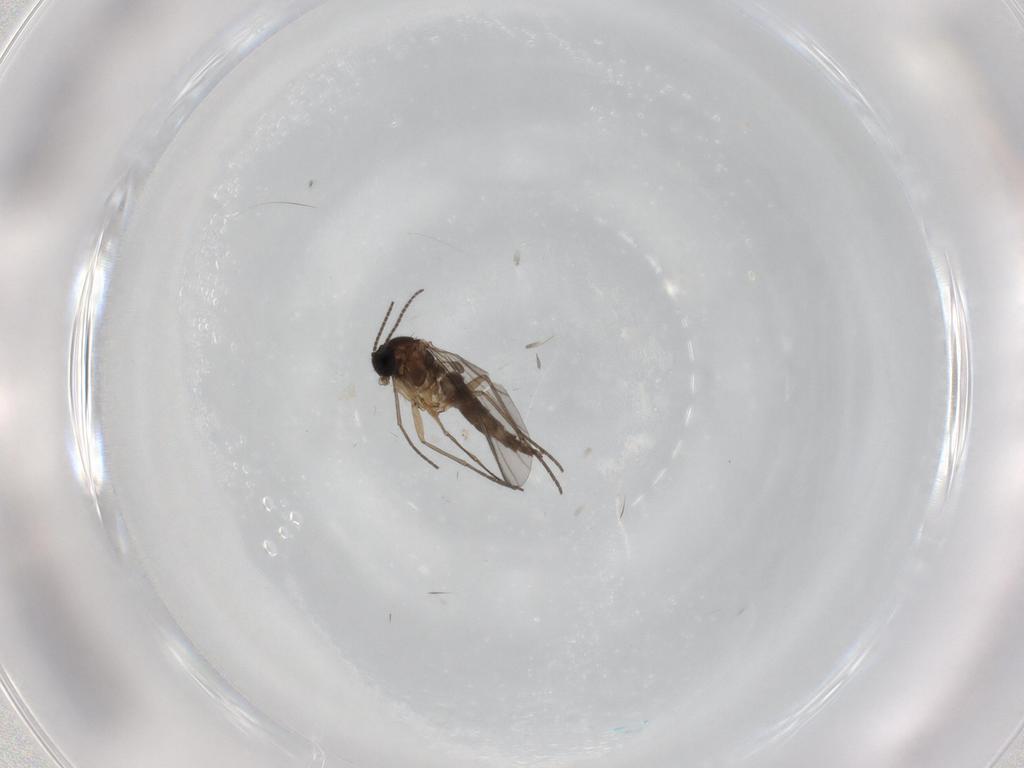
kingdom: Animalia
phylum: Arthropoda
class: Insecta
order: Diptera
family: Sciaridae
